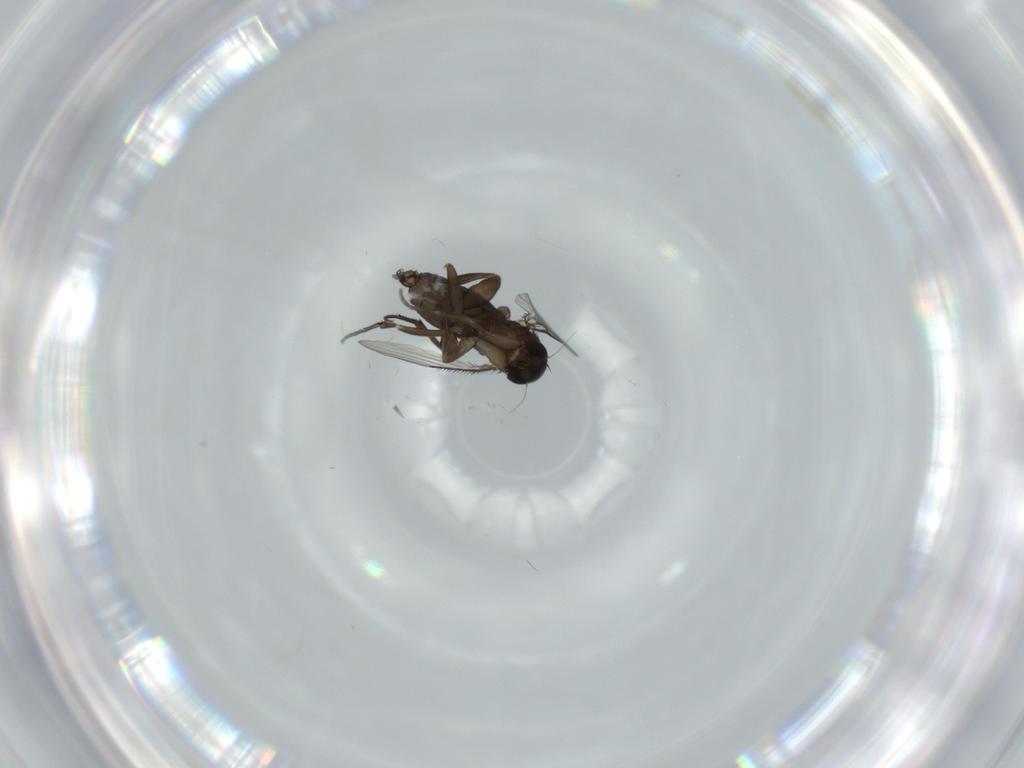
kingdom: Animalia
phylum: Arthropoda
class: Insecta
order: Diptera
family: Phoridae
